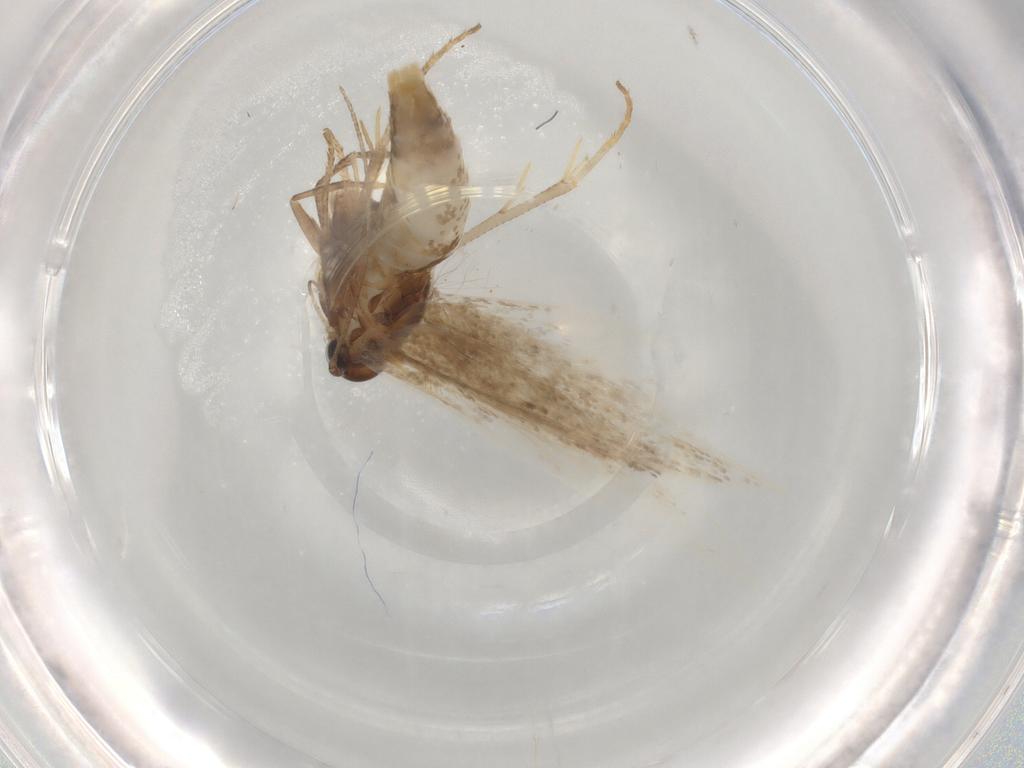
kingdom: Animalia
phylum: Arthropoda
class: Insecta
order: Lepidoptera
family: Gelechiidae
